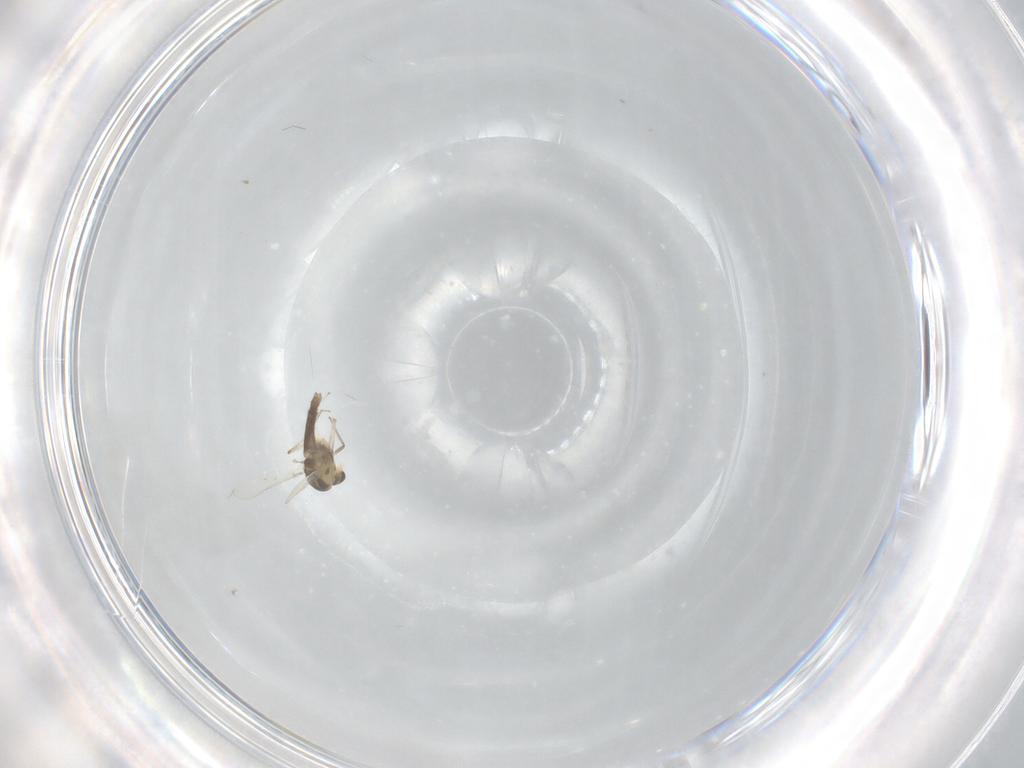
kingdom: Animalia
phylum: Arthropoda
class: Insecta
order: Diptera
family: Chironomidae
